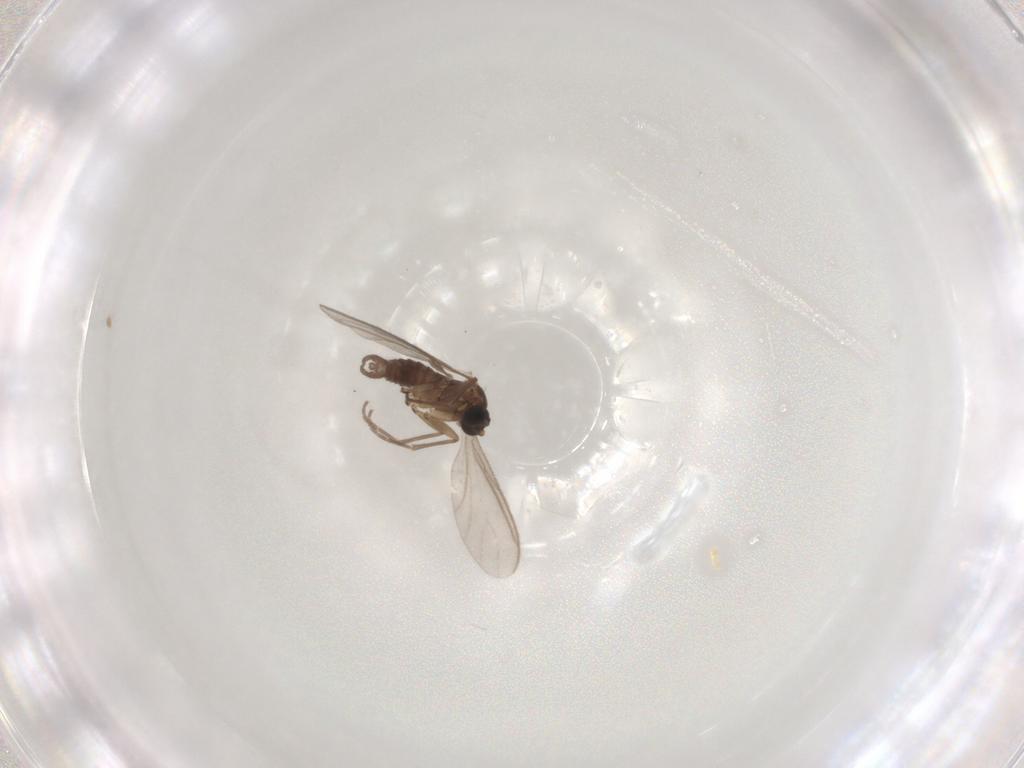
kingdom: Animalia
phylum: Arthropoda
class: Insecta
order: Diptera
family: Sciaridae
